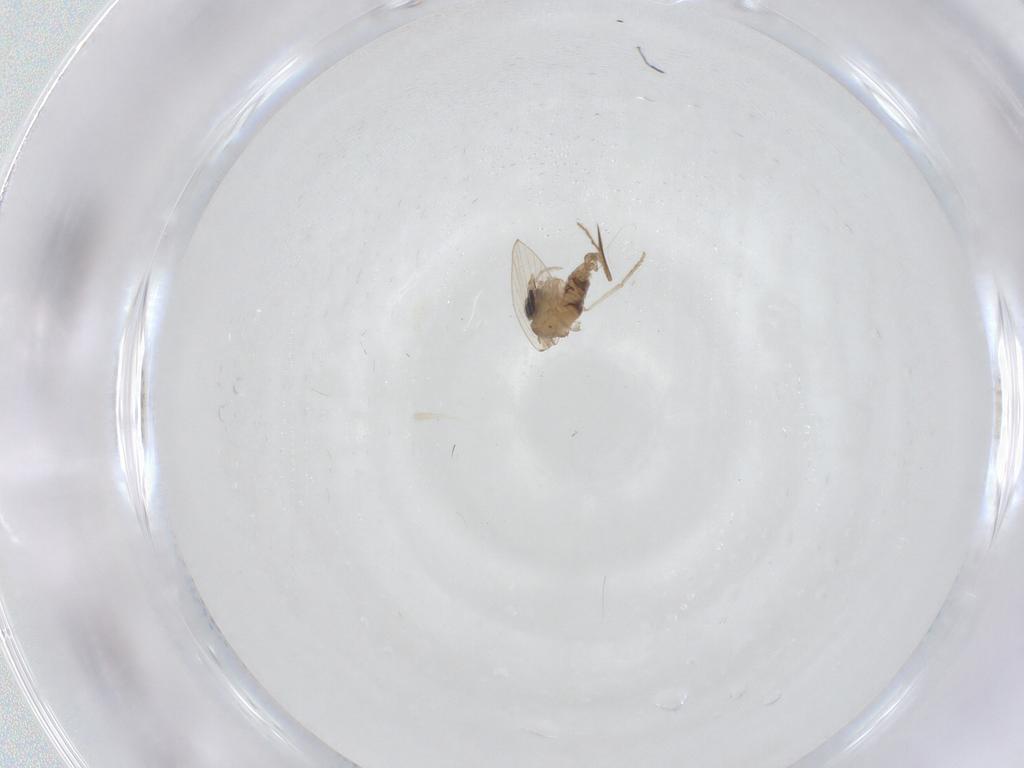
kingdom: Animalia
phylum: Arthropoda
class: Insecta
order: Diptera
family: Psychodidae
